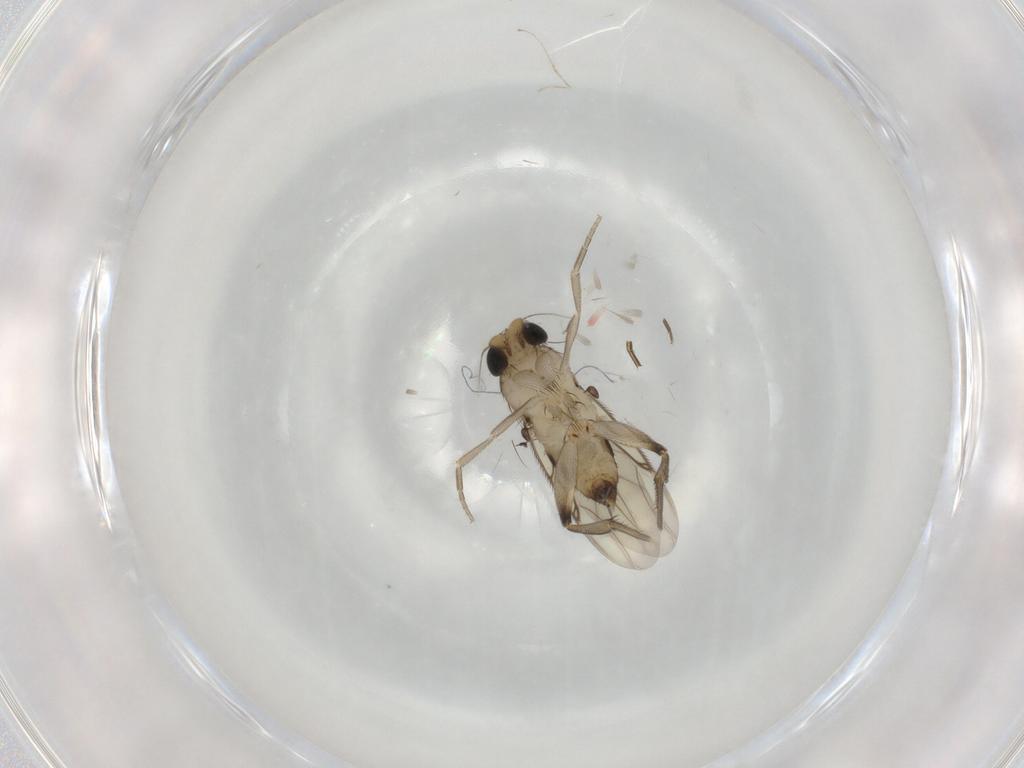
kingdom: Animalia
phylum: Arthropoda
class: Insecta
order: Diptera
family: Phoridae
